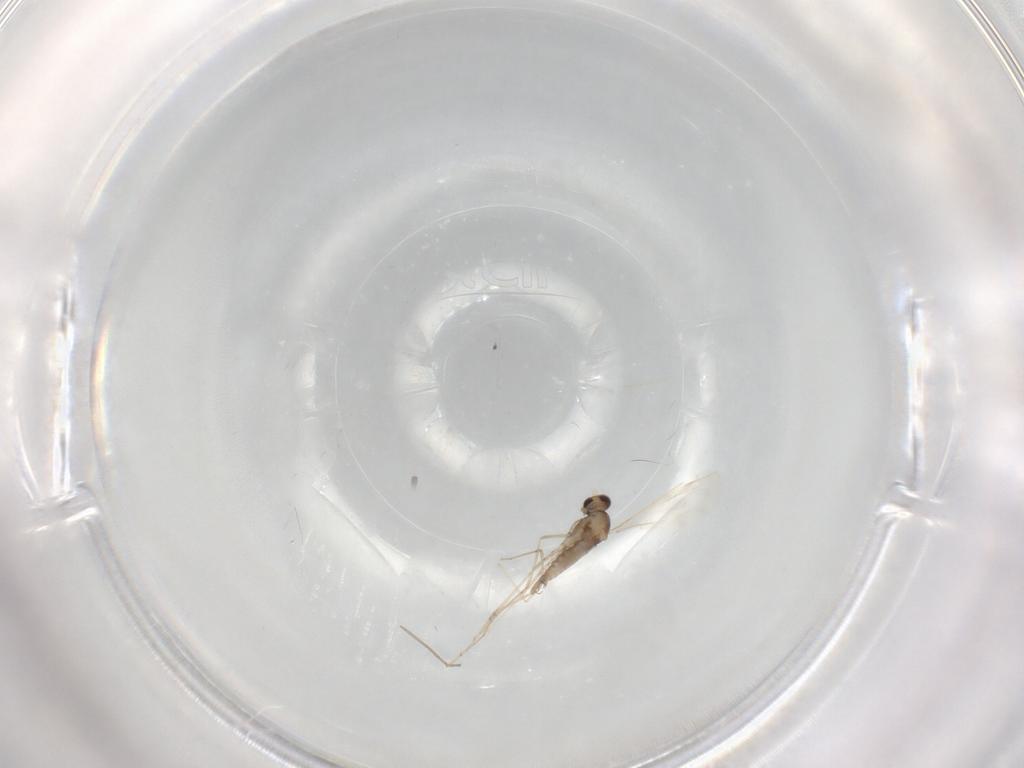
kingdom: Animalia
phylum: Arthropoda
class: Insecta
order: Diptera
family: Cecidomyiidae
